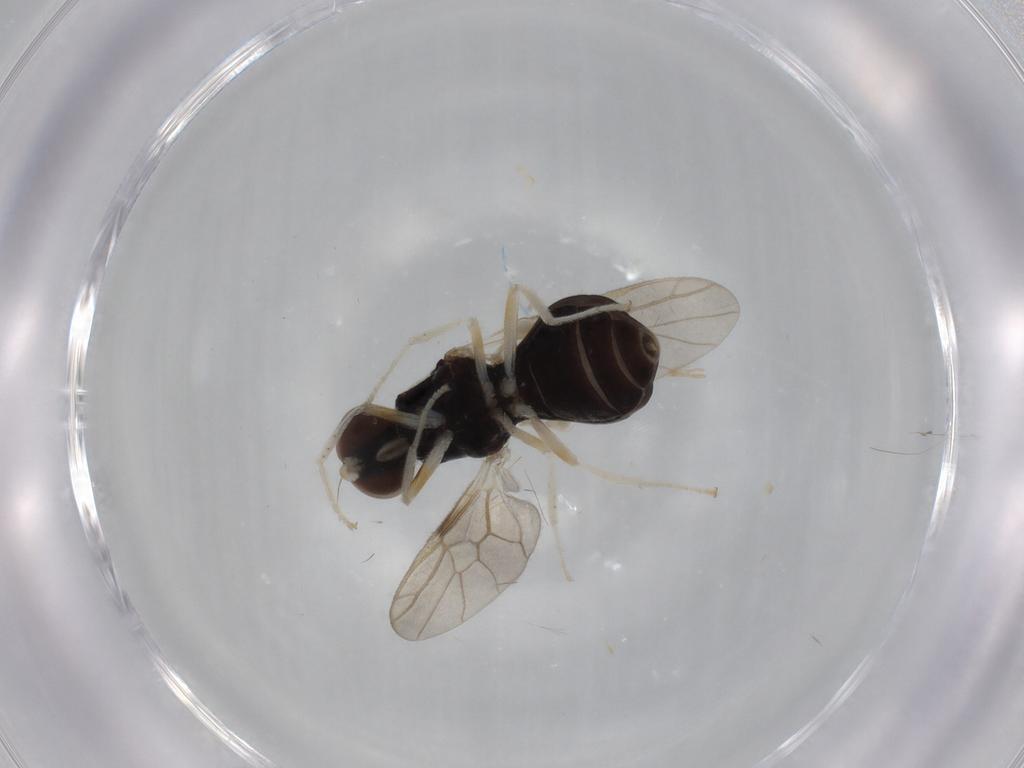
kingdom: Animalia
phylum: Arthropoda
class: Insecta
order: Diptera
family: Stratiomyidae
